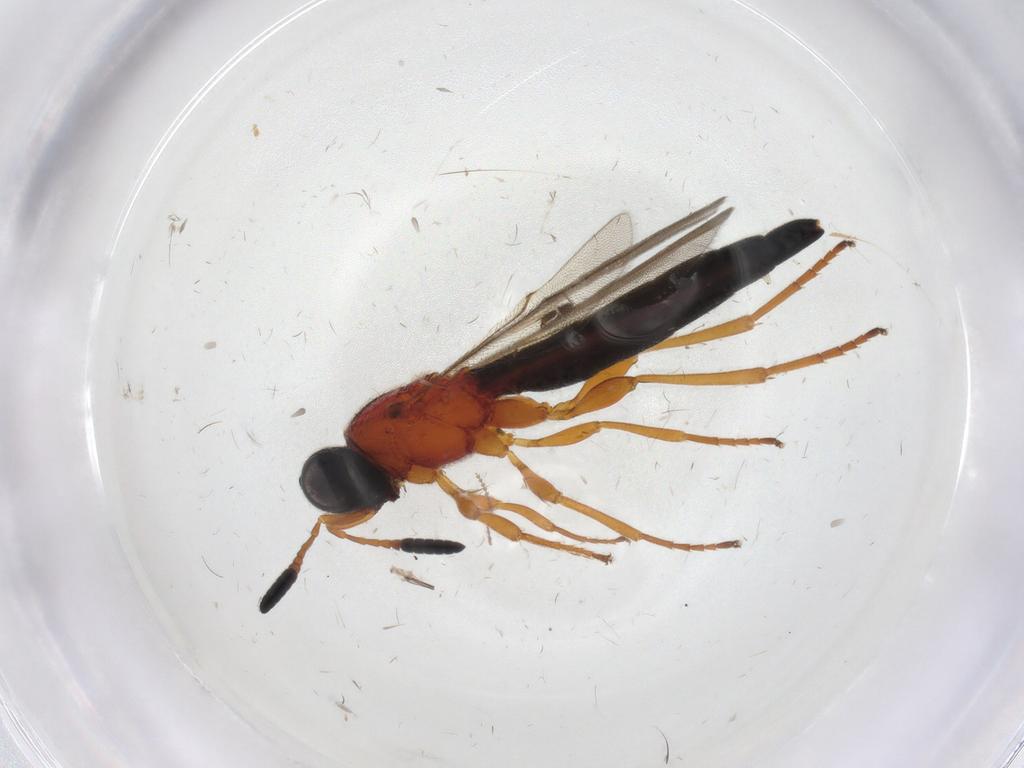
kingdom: Animalia
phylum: Arthropoda
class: Insecta
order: Hymenoptera
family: Scelionidae
